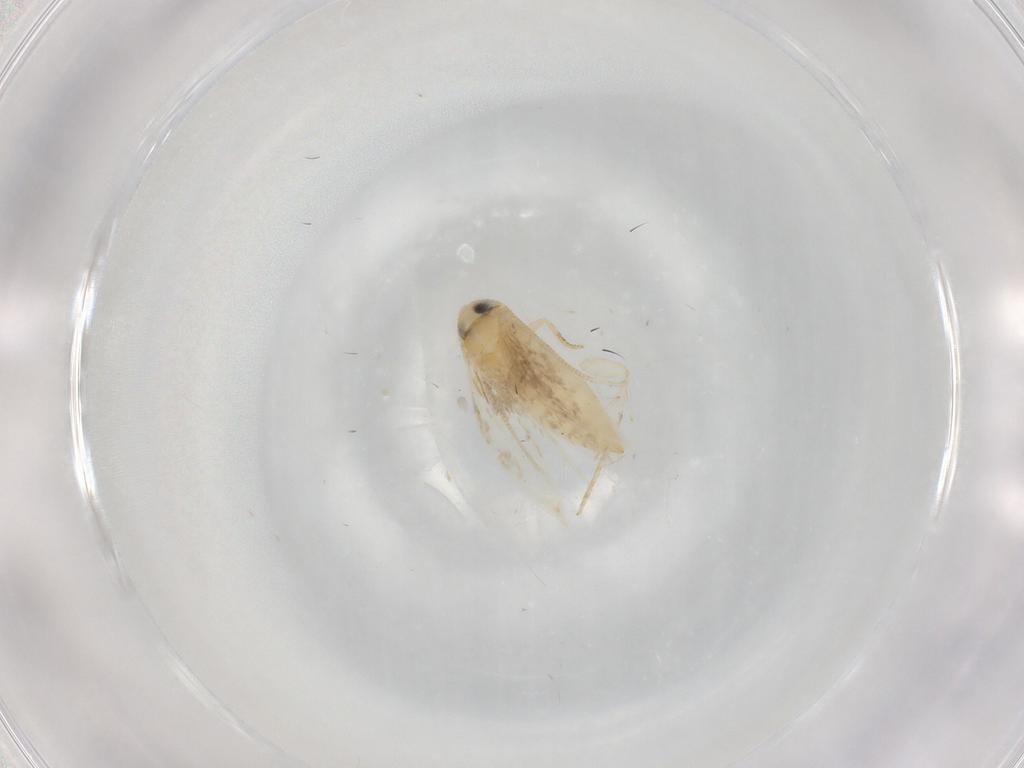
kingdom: Animalia
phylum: Arthropoda
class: Insecta
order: Lepidoptera
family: Opostegidae
